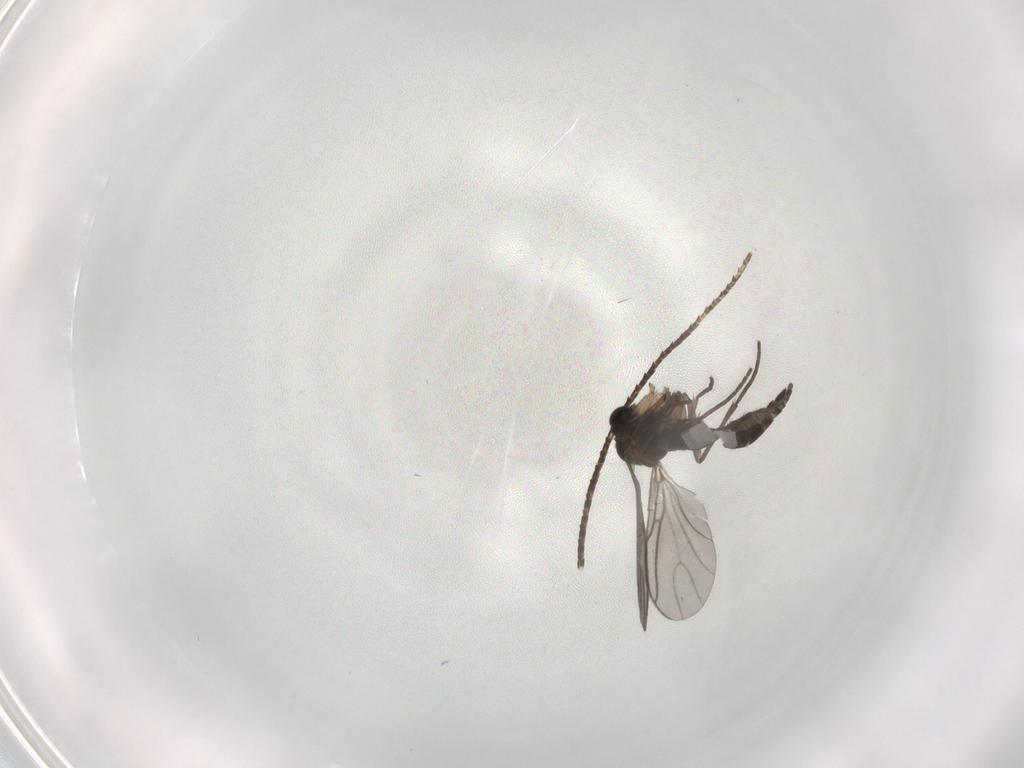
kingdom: Animalia
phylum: Arthropoda
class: Insecta
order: Diptera
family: Sciaridae
